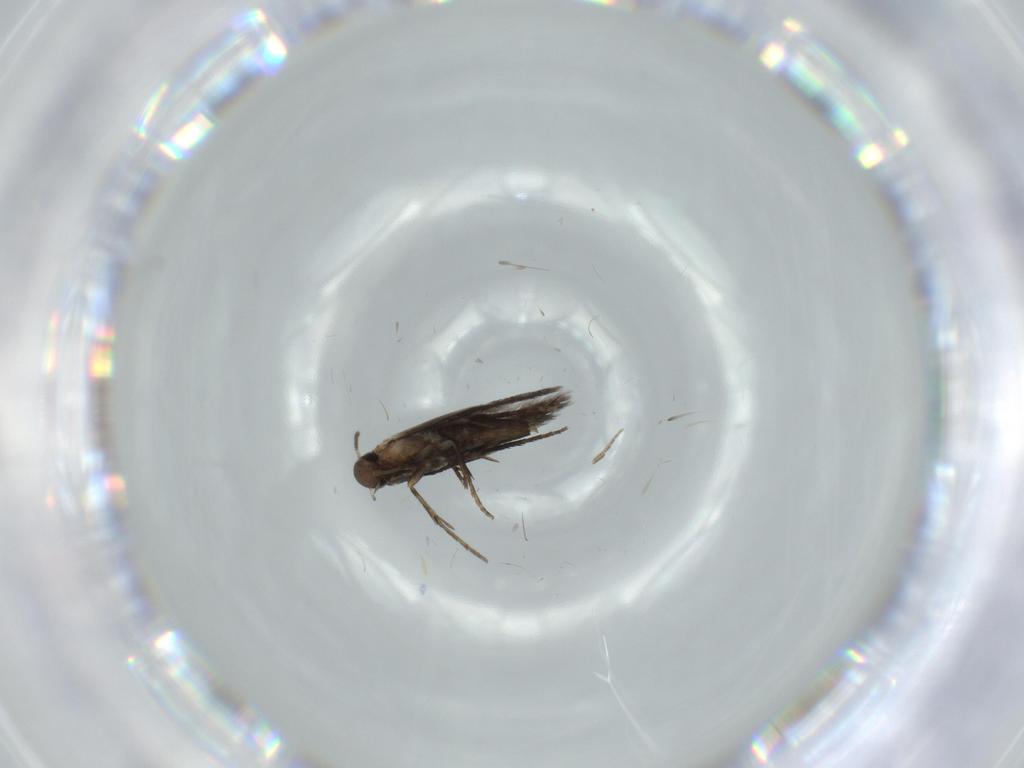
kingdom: Animalia
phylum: Arthropoda
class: Insecta
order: Lepidoptera
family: Heliozelidae
